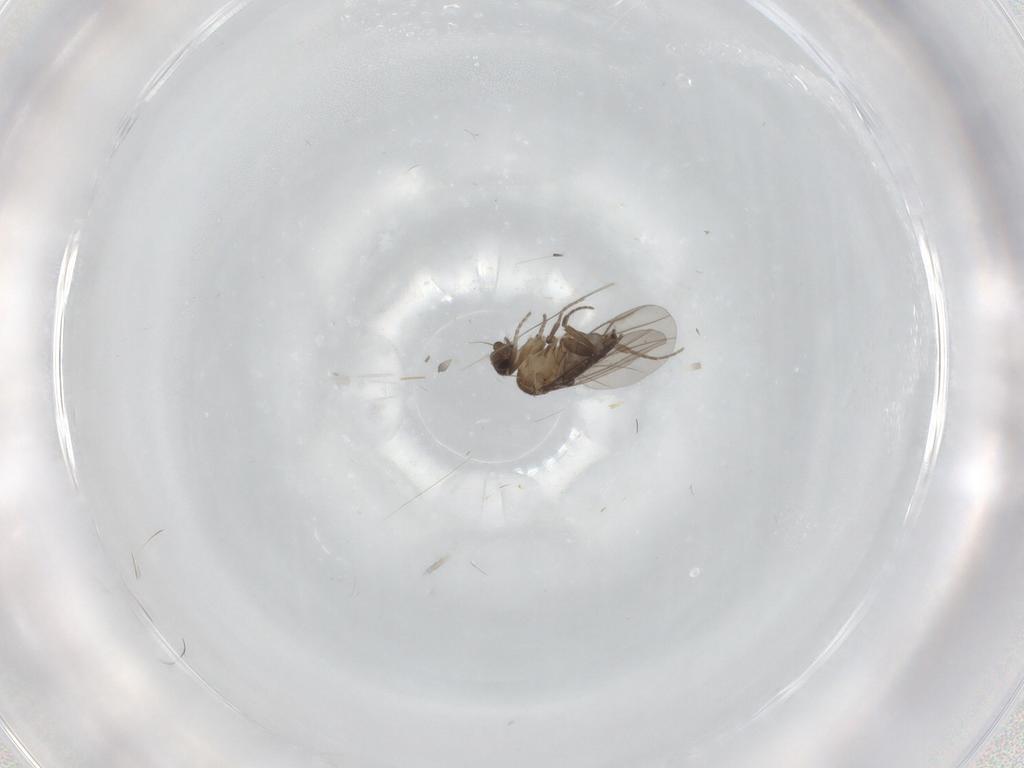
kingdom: Animalia
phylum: Arthropoda
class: Insecta
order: Diptera
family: Phoridae
